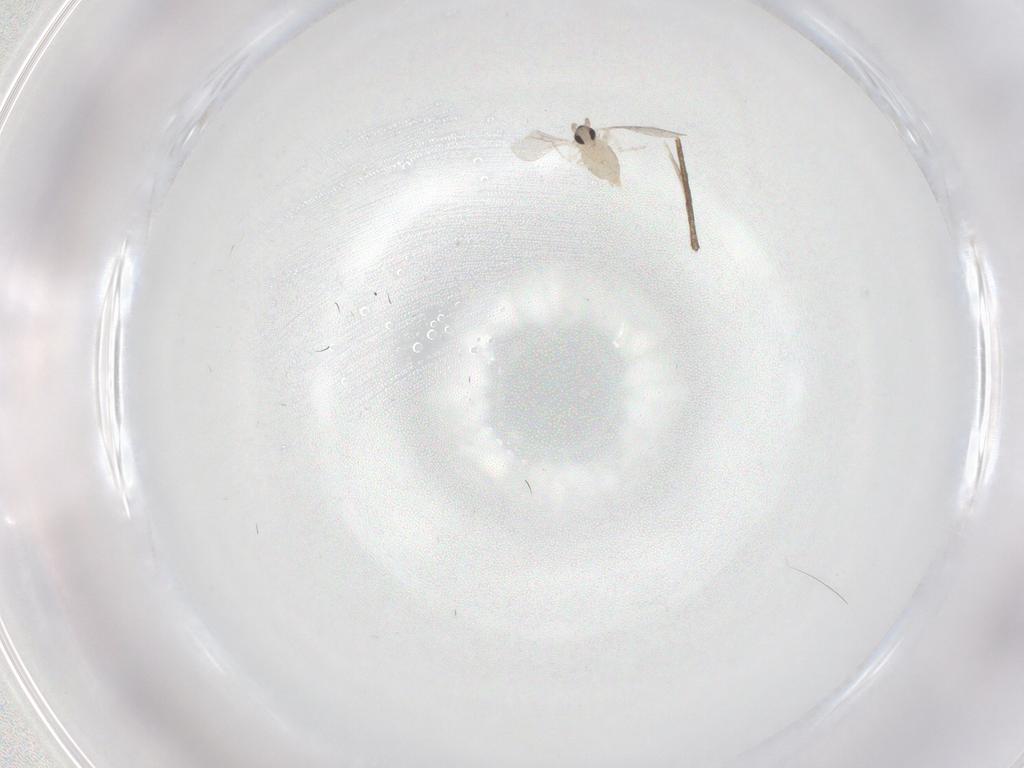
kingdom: Animalia
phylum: Arthropoda
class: Insecta
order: Diptera
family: Cecidomyiidae
